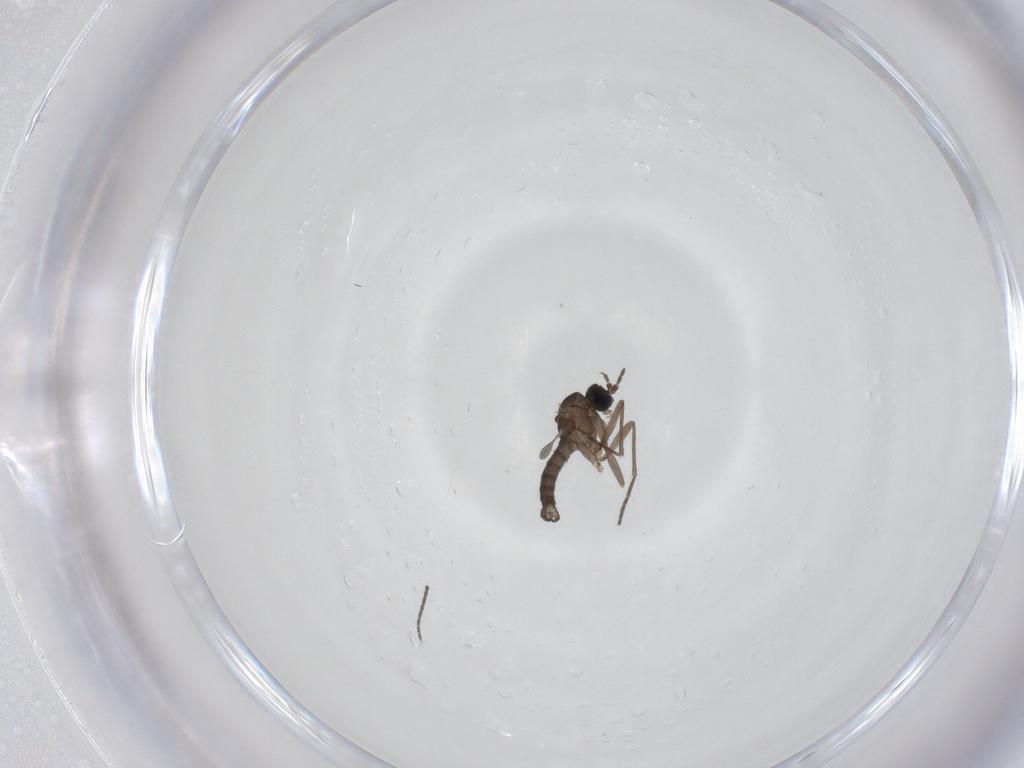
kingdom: Animalia
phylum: Arthropoda
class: Insecta
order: Diptera
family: Sciaridae
